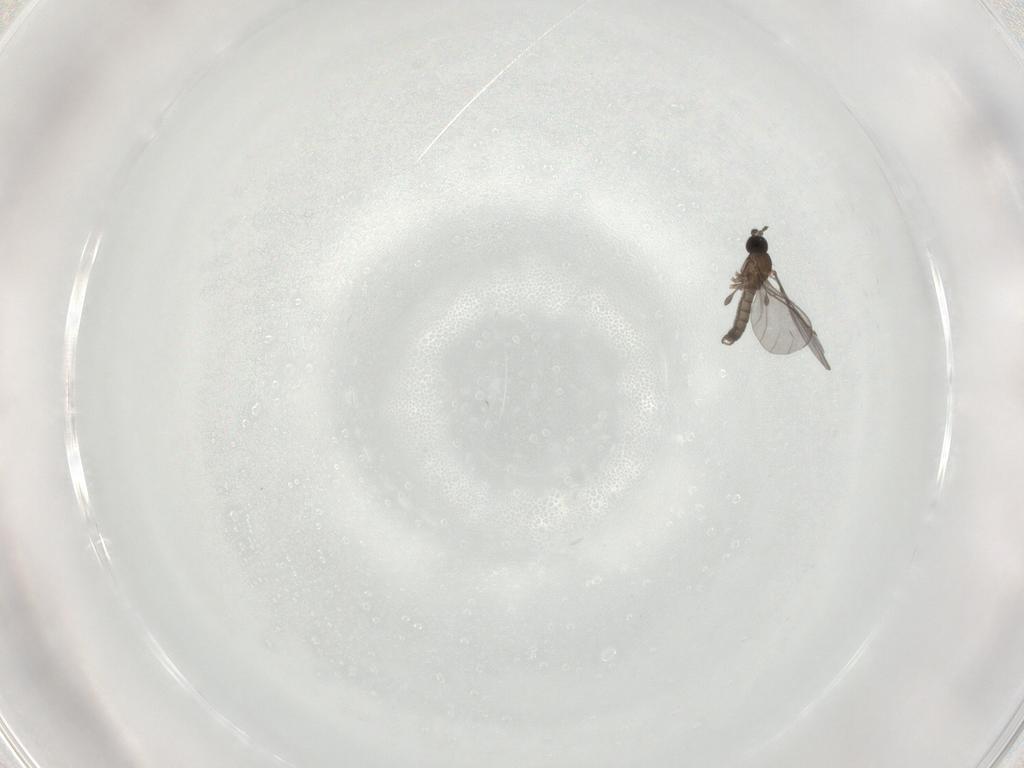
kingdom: Animalia
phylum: Arthropoda
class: Insecta
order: Diptera
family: Sciaridae
